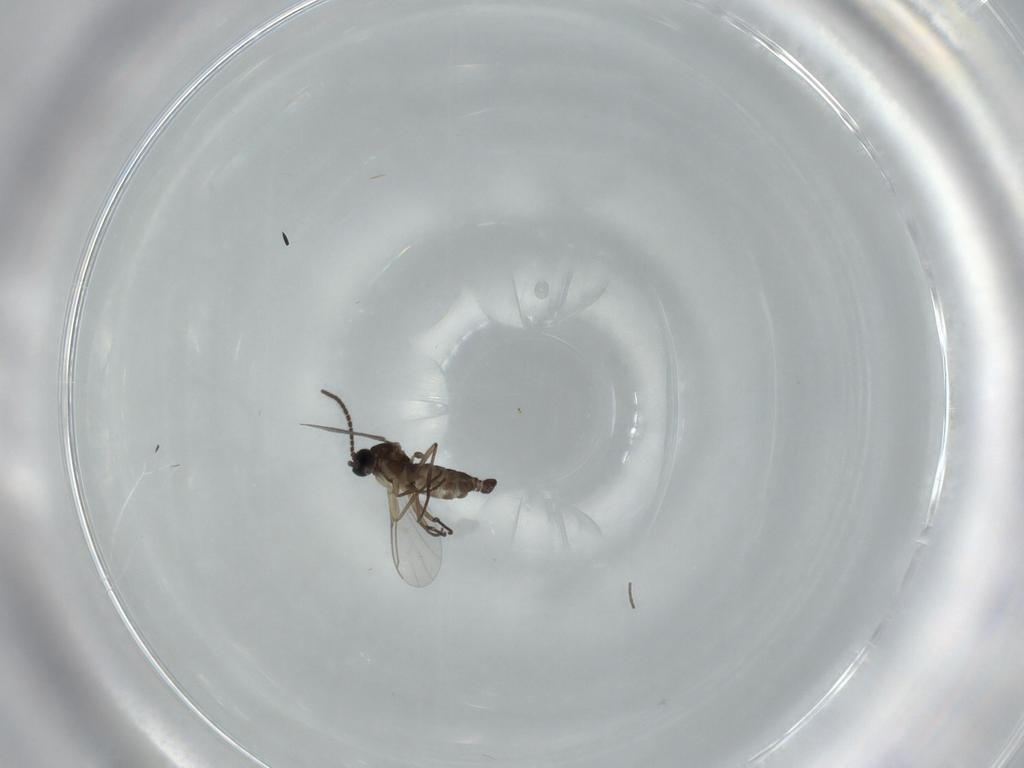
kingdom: Animalia
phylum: Arthropoda
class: Insecta
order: Diptera
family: Sciaridae
